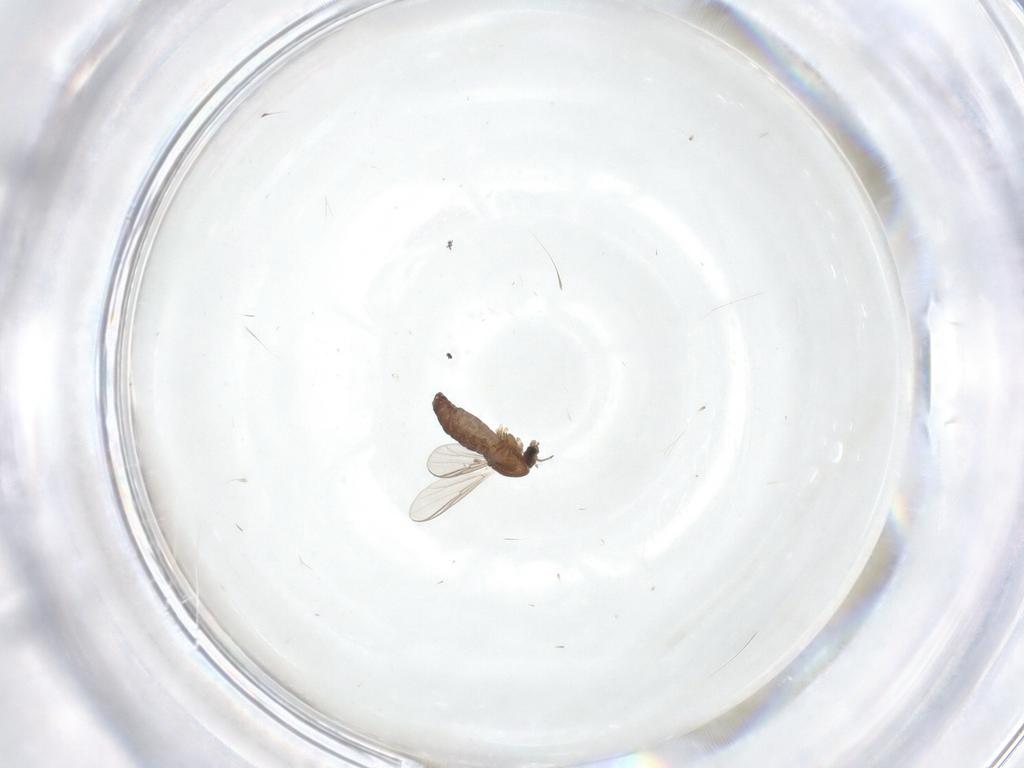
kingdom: Animalia
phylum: Arthropoda
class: Insecta
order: Diptera
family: Chironomidae
